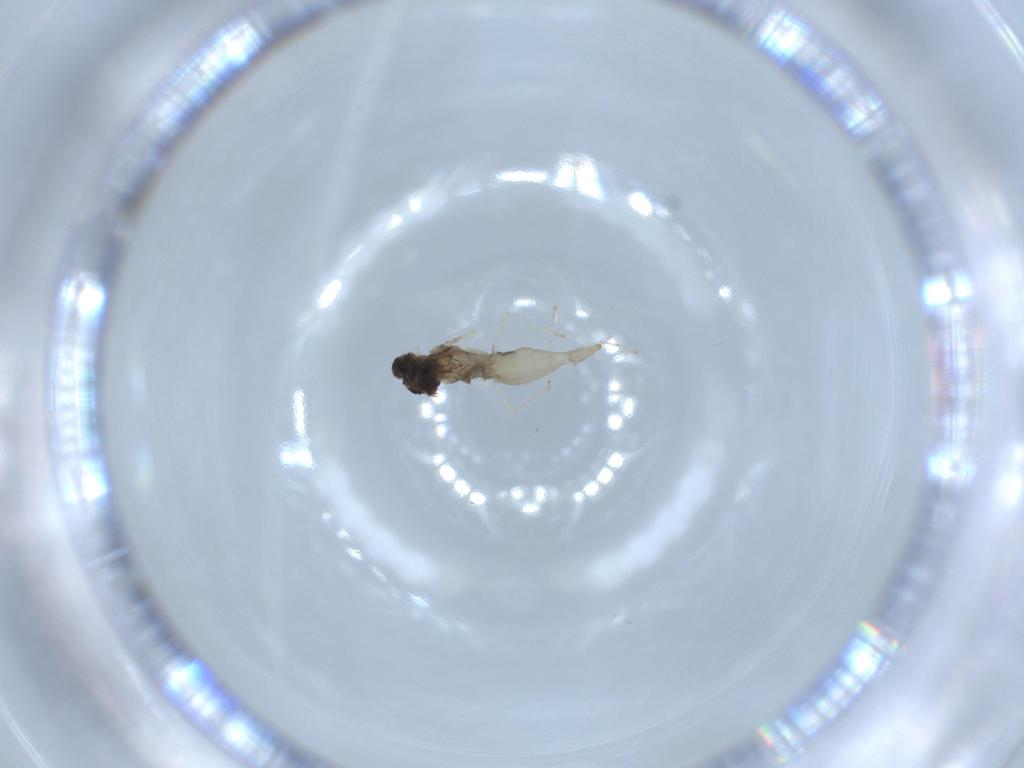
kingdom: Animalia
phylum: Arthropoda
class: Insecta
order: Diptera
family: Cecidomyiidae
